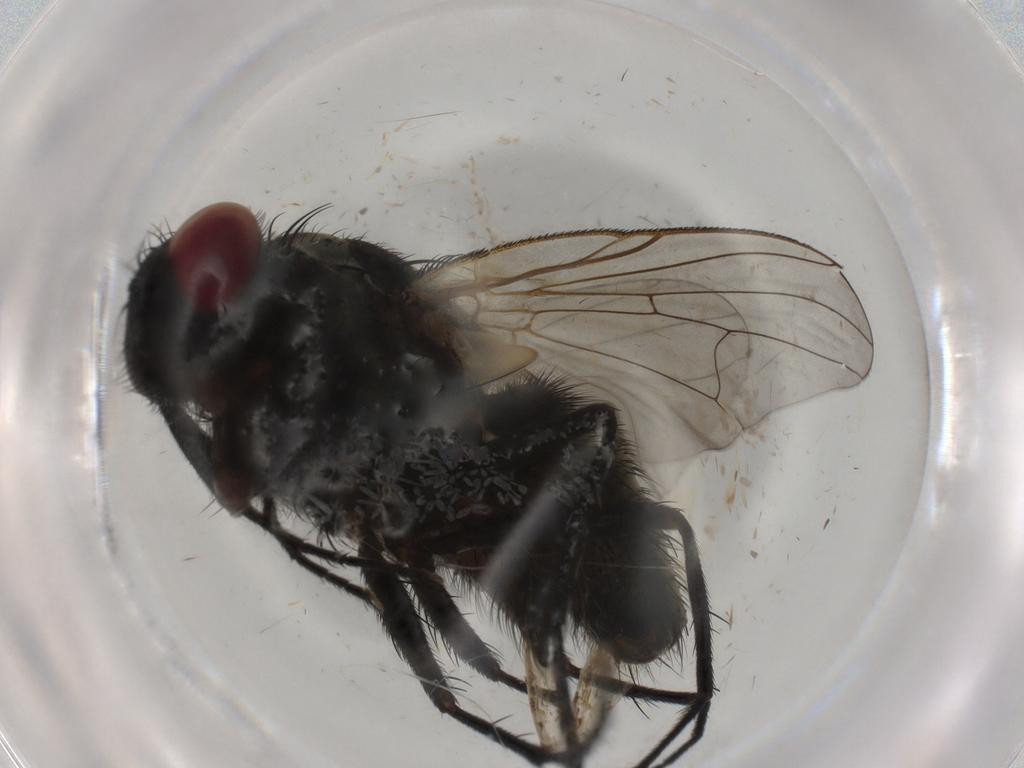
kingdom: Animalia
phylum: Arthropoda
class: Insecta
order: Diptera
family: Muscidae
